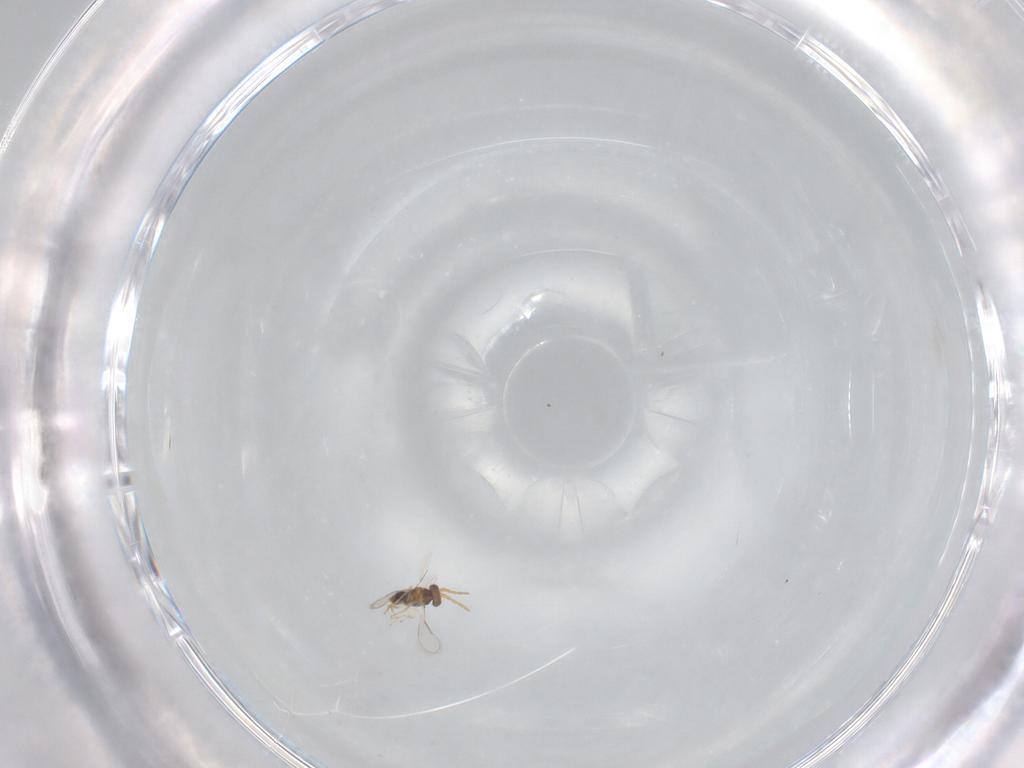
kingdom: Animalia
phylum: Arthropoda
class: Insecta
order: Hymenoptera
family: Aphelinidae
